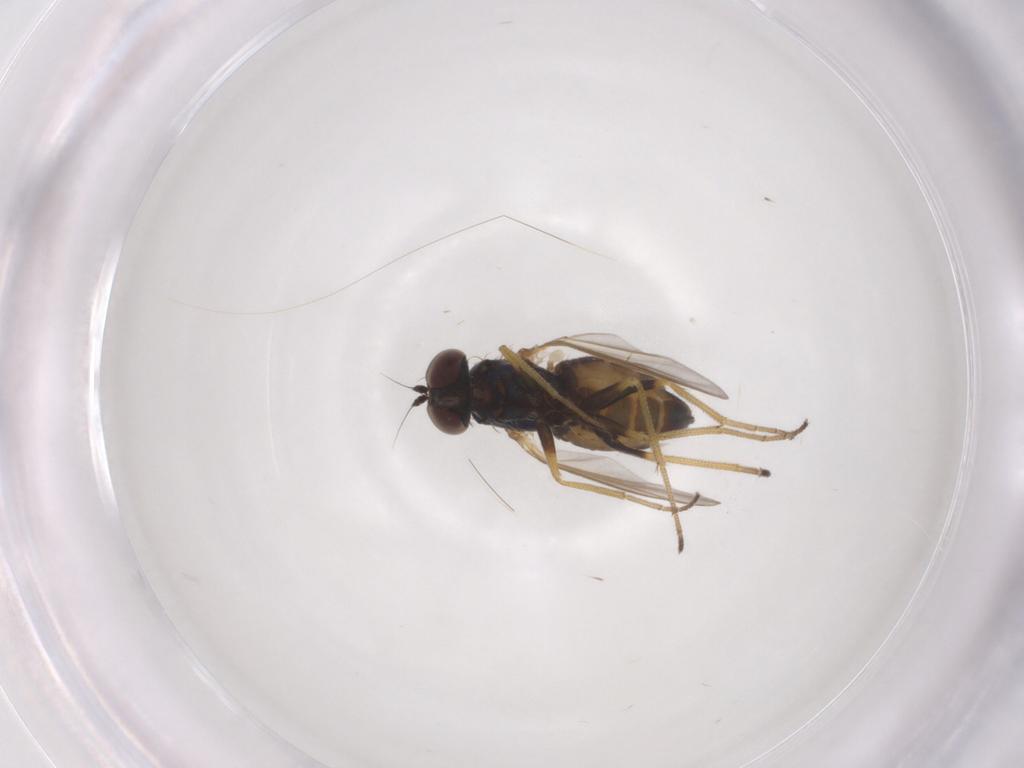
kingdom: Animalia
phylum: Arthropoda
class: Insecta
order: Diptera
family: Dolichopodidae
